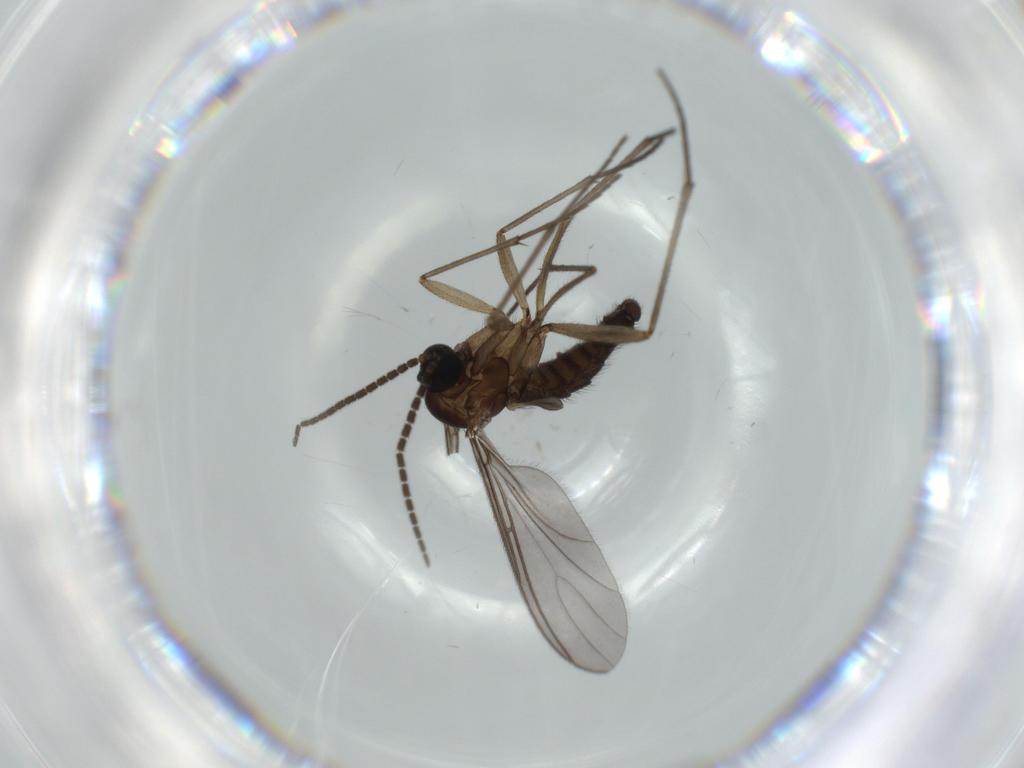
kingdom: Animalia
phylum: Arthropoda
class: Insecta
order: Diptera
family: Sciaridae
